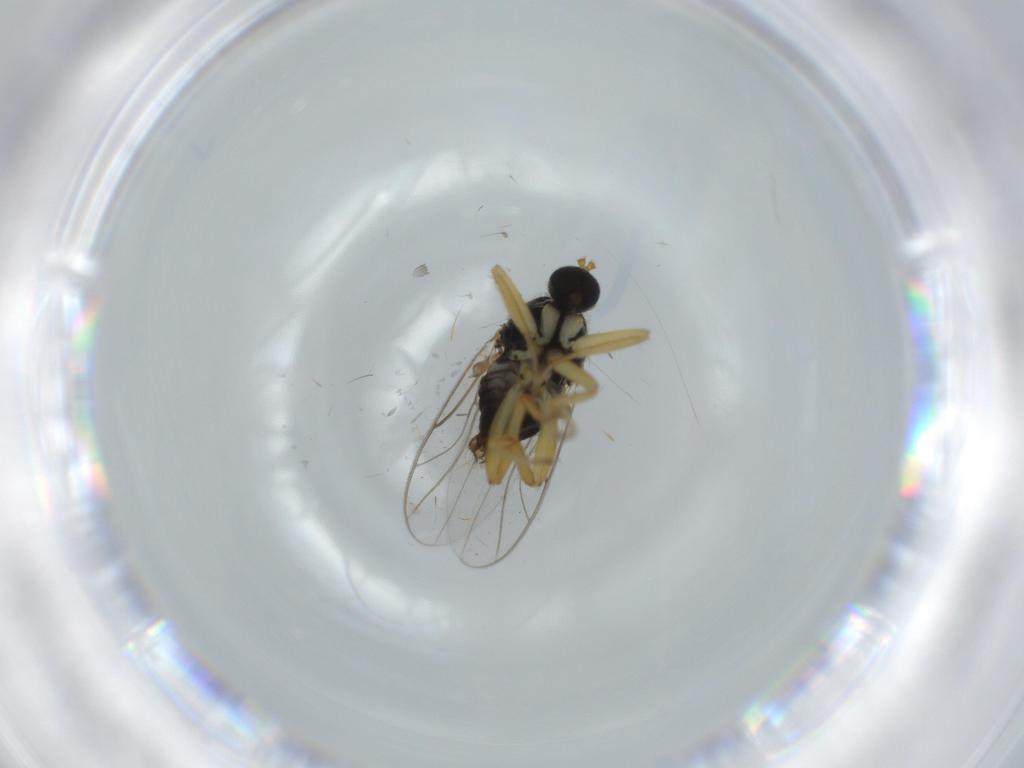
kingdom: Animalia
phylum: Arthropoda
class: Insecta
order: Diptera
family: Hybotidae
